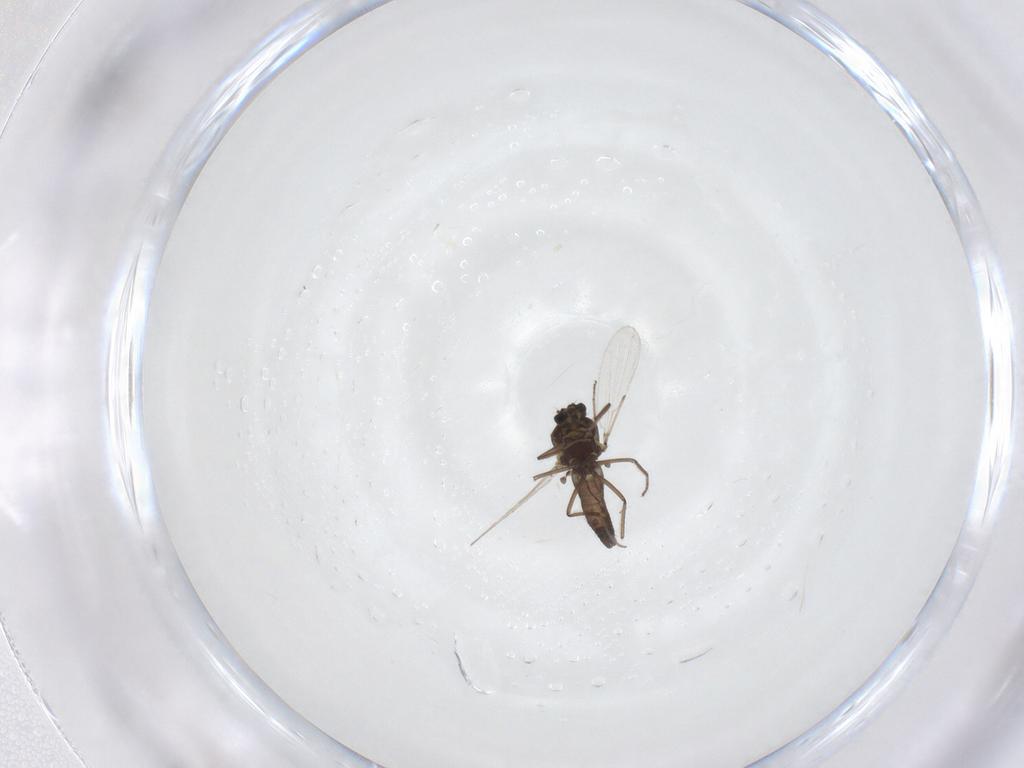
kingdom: Animalia
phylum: Arthropoda
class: Insecta
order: Diptera
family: Ceratopogonidae
